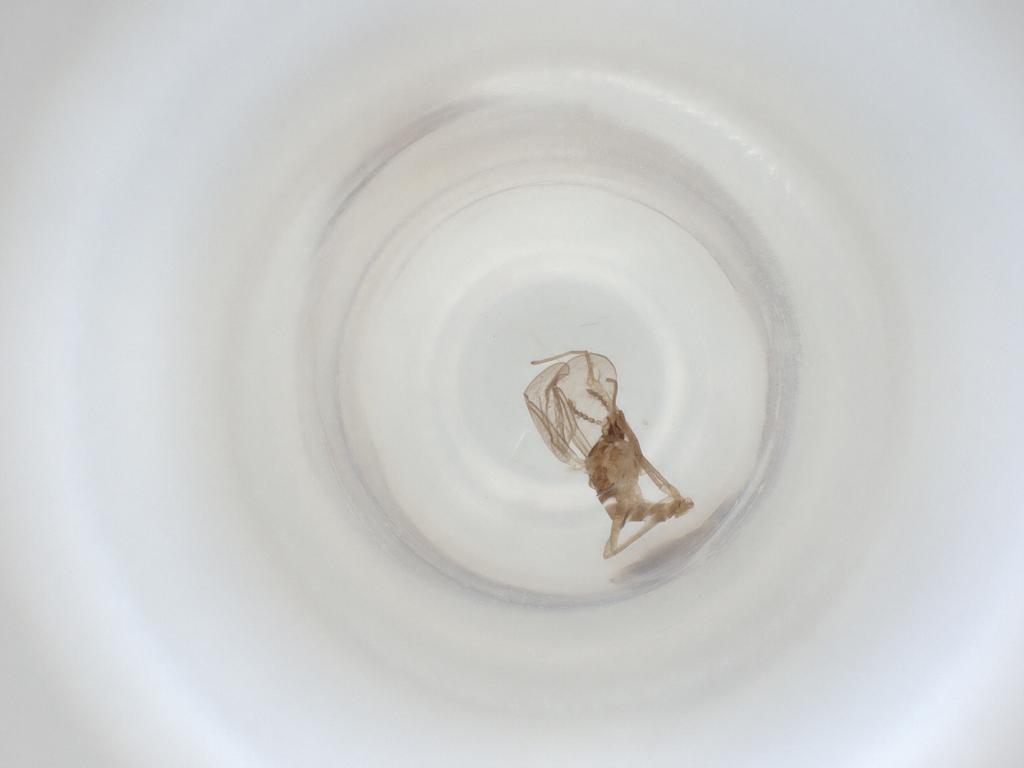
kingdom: Animalia
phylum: Arthropoda
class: Insecta
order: Diptera
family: Cecidomyiidae
